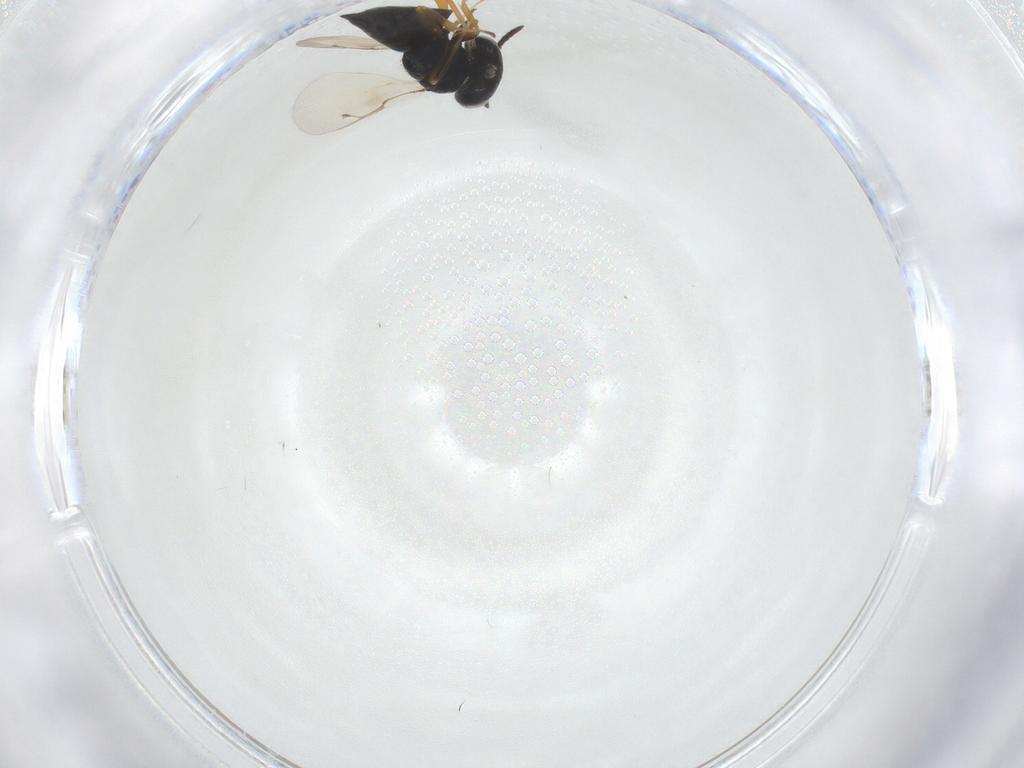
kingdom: Animalia
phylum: Arthropoda
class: Insecta
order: Hymenoptera
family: Pteromalidae
